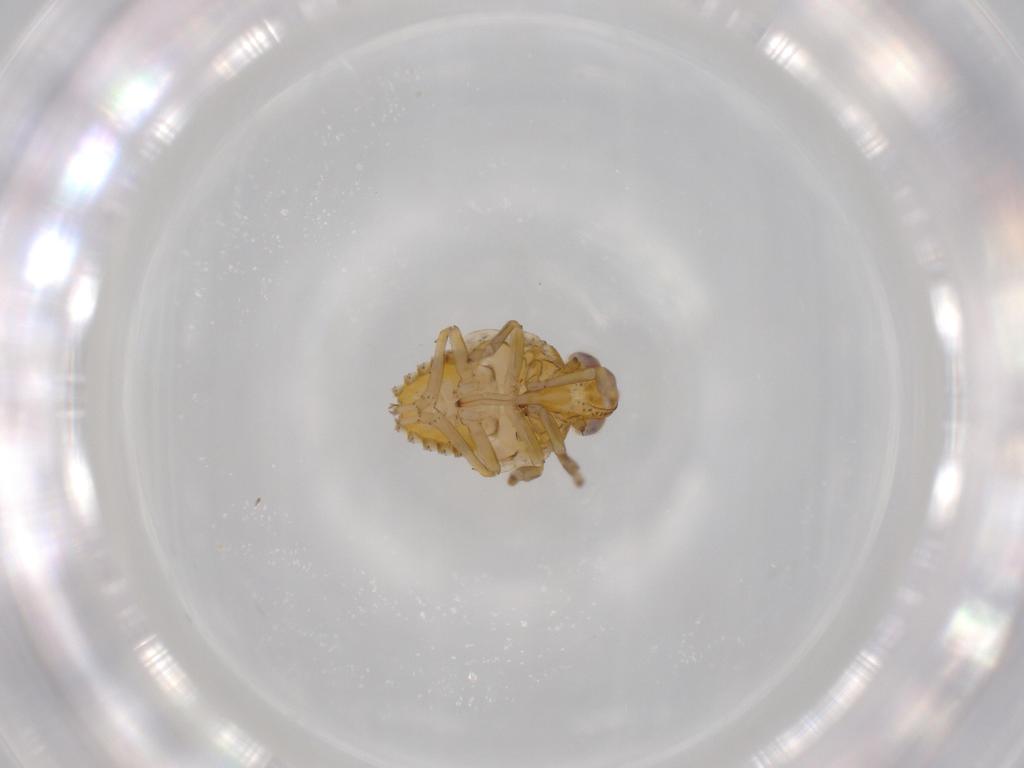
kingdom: Animalia
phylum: Arthropoda
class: Insecta
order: Hemiptera
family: Issidae
